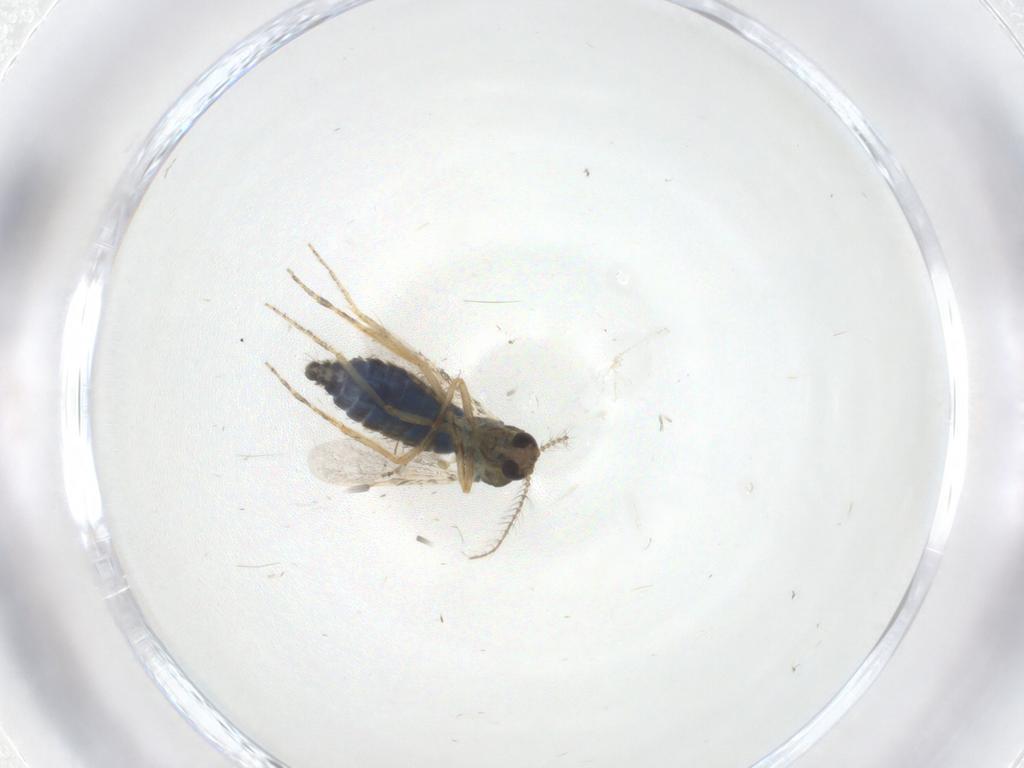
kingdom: Animalia
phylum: Arthropoda
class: Insecta
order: Diptera
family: Ceratopogonidae
